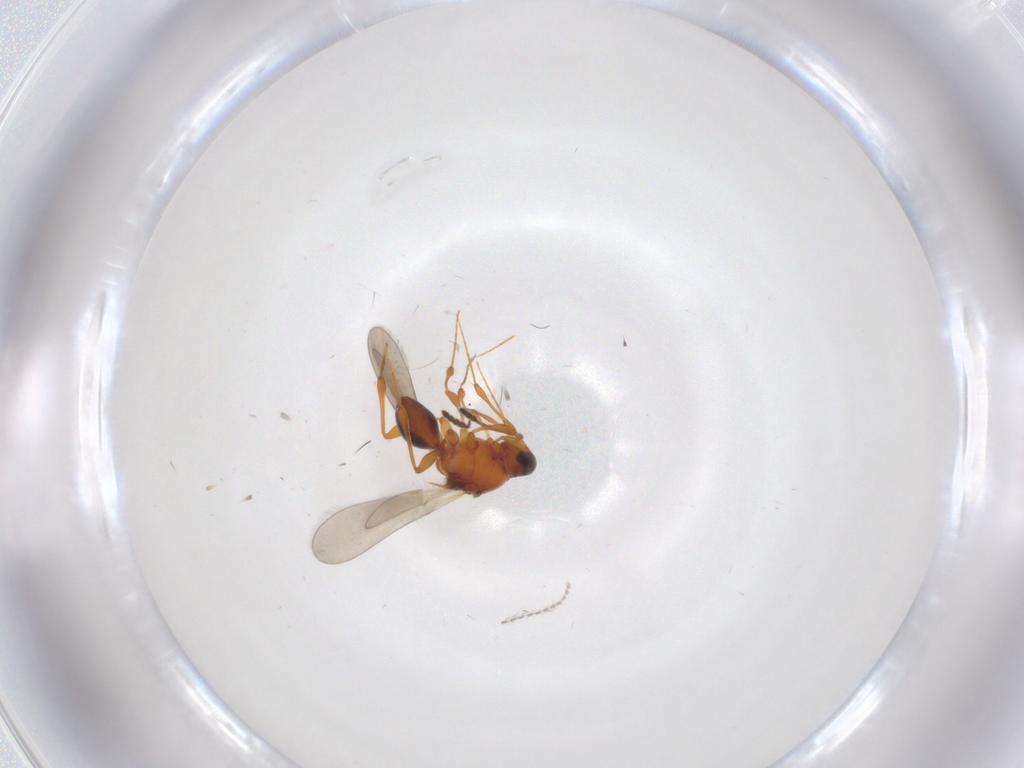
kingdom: Animalia
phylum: Arthropoda
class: Insecta
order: Hymenoptera
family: Platygastridae
